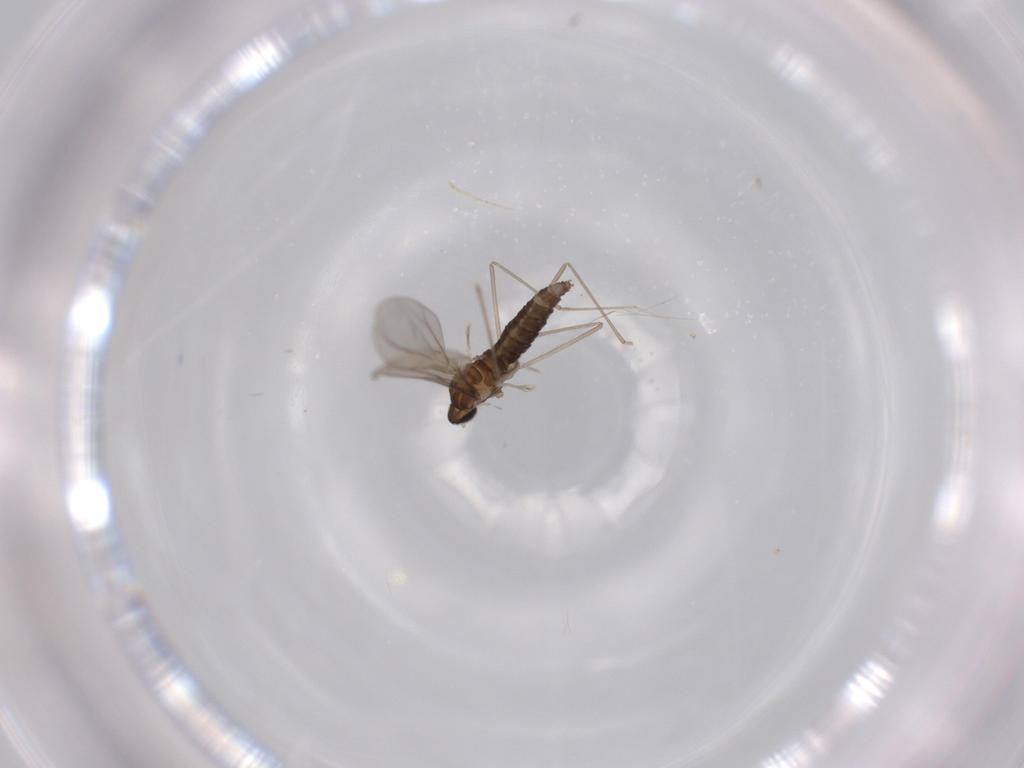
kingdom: Animalia
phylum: Arthropoda
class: Insecta
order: Diptera
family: Cecidomyiidae
